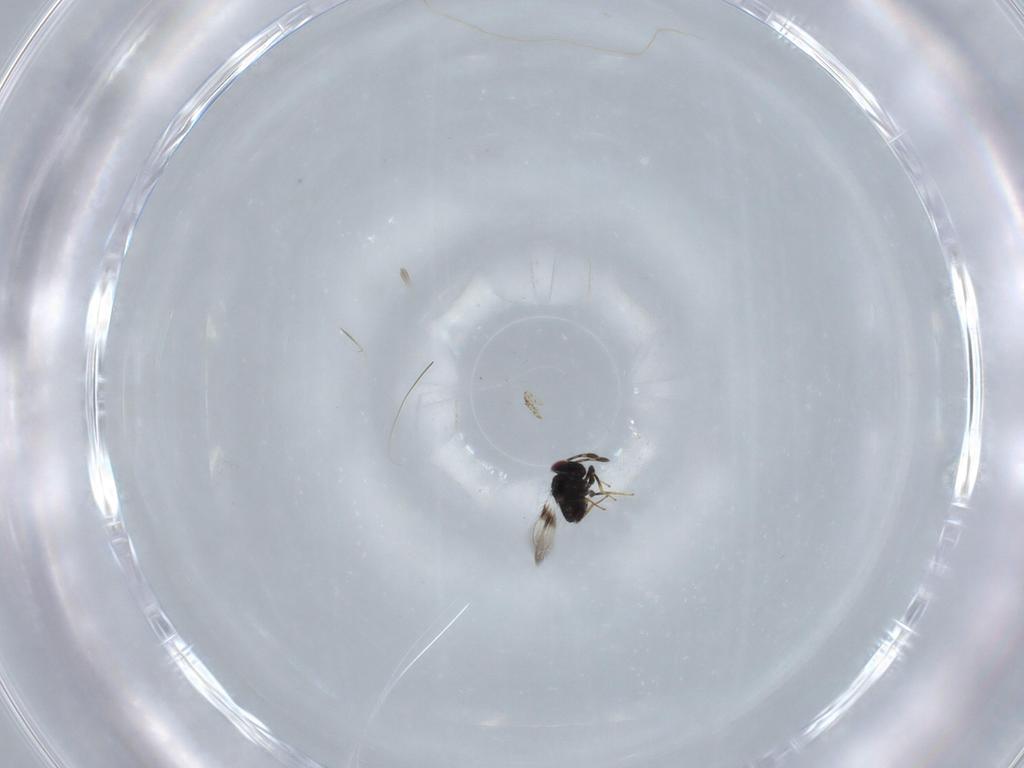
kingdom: Animalia
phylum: Arthropoda
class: Insecta
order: Hymenoptera
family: Azotidae
